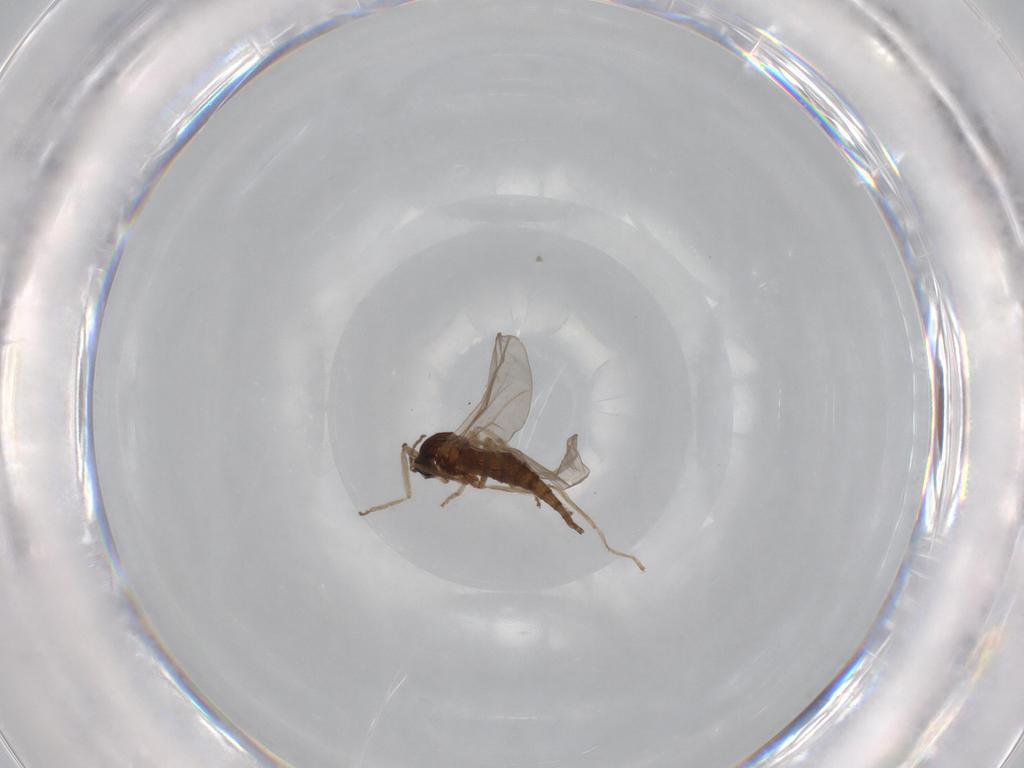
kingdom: Animalia
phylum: Arthropoda
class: Insecta
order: Diptera
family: Cecidomyiidae
